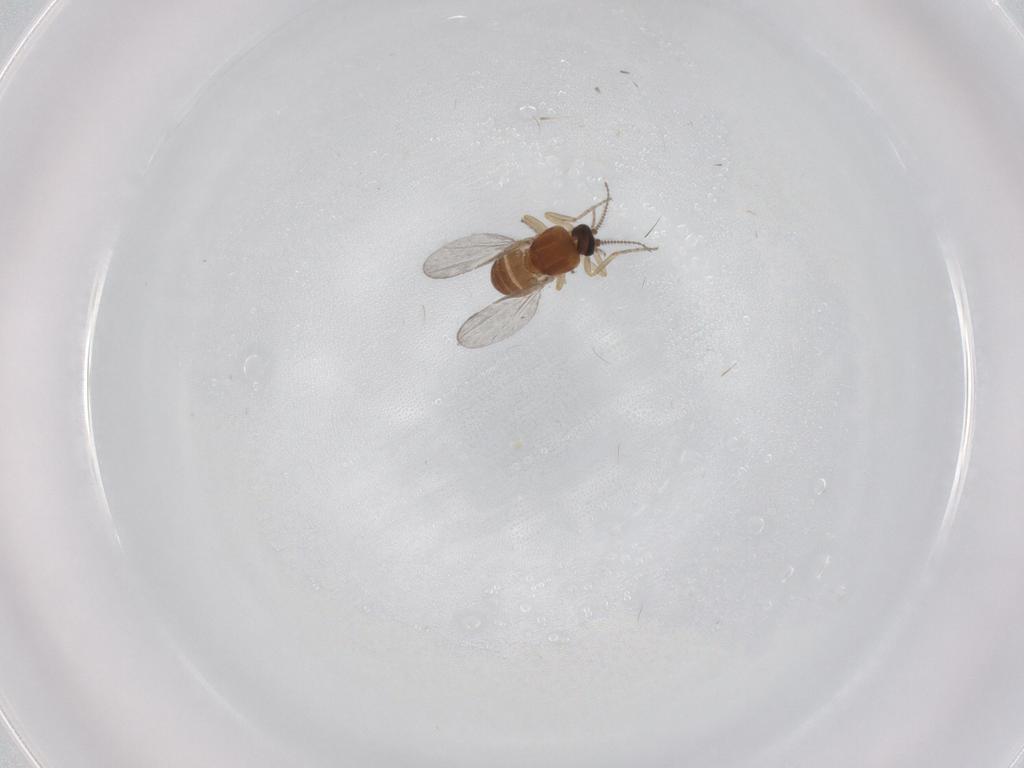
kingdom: Animalia
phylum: Arthropoda
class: Insecta
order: Diptera
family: Ceratopogonidae
